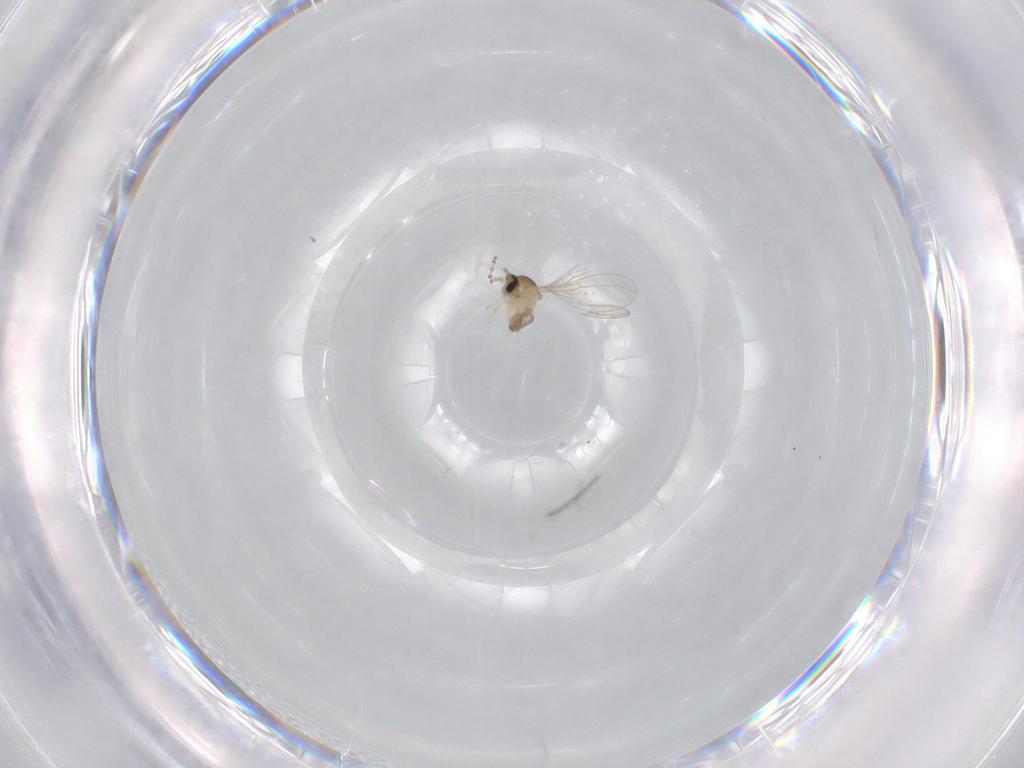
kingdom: Animalia
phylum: Arthropoda
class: Insecta
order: Diptera
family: Cecidomyiidae
